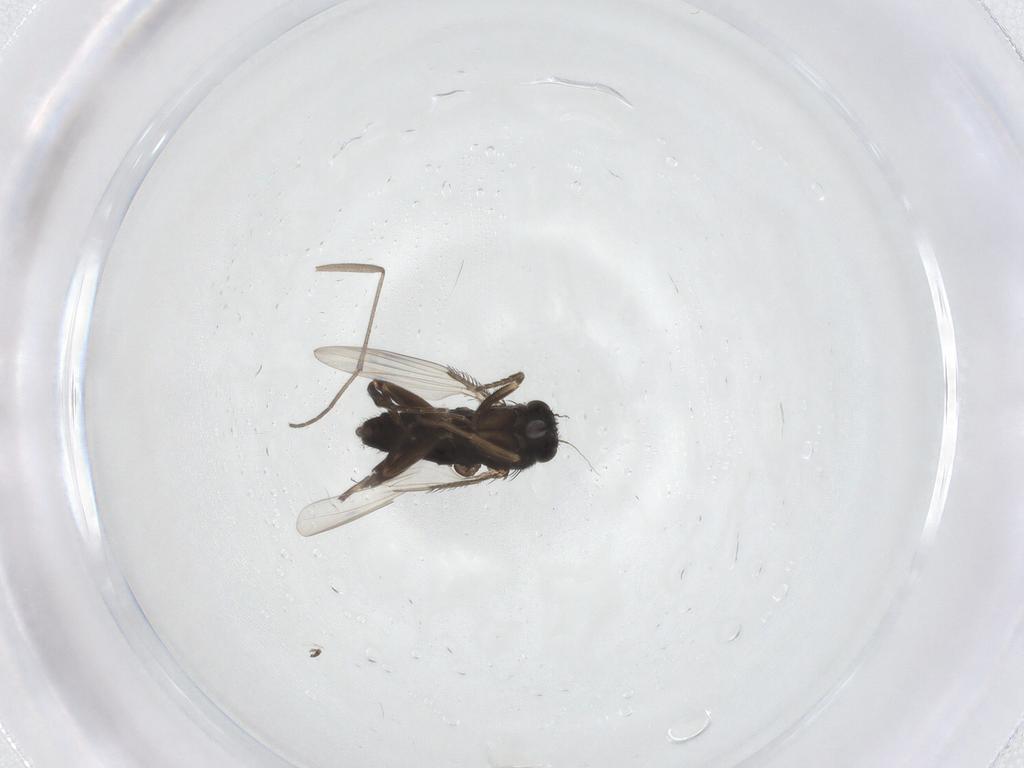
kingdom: Animalia
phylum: Arthropoda
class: Insecta
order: Diptera
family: Phoridae
